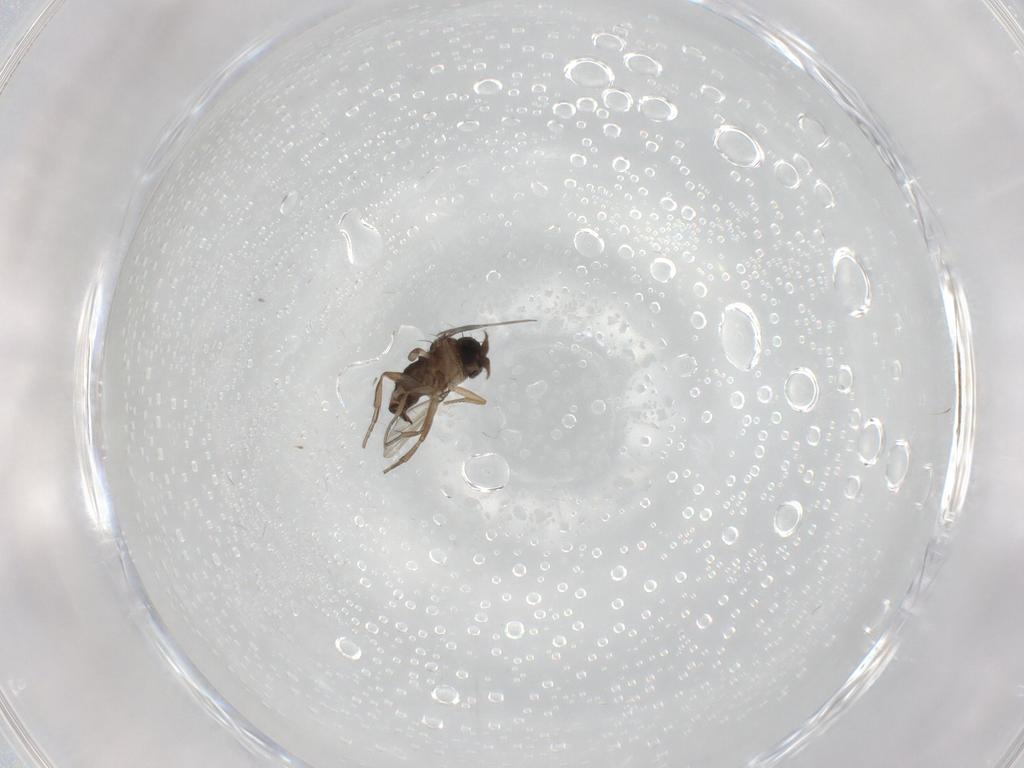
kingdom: Animalia
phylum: Arthropoda
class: Insecta
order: Diptera
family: Phoridae
